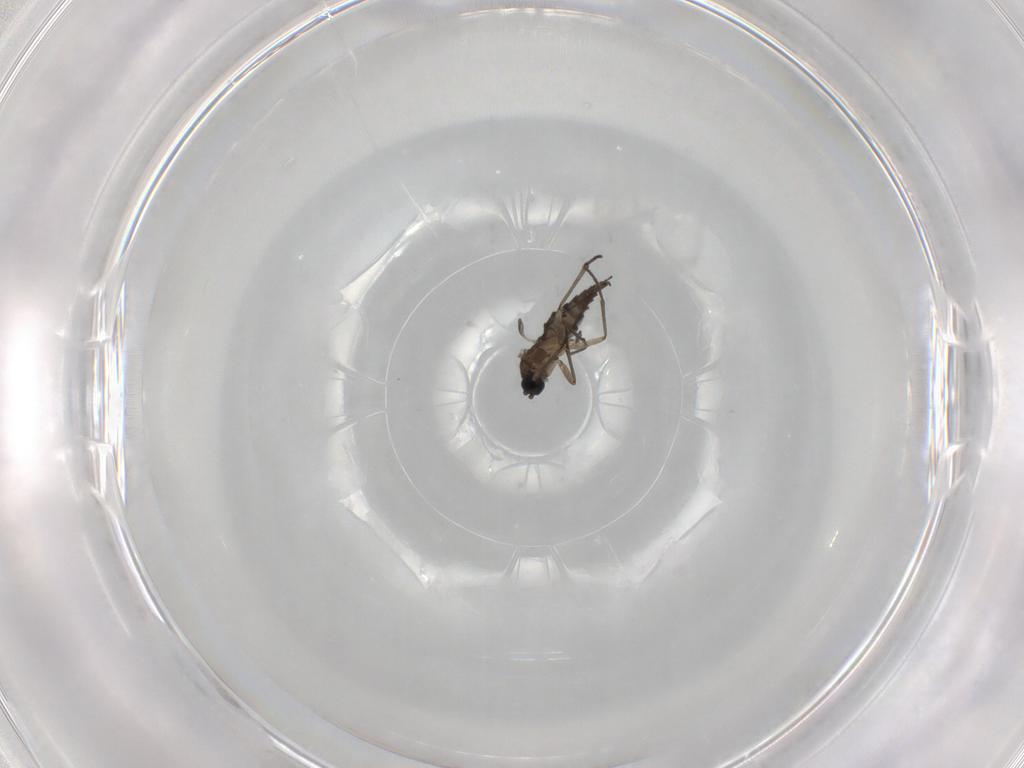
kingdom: Animalia
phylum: Arthropoda
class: Insecta
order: Diptera
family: Sciaridae
